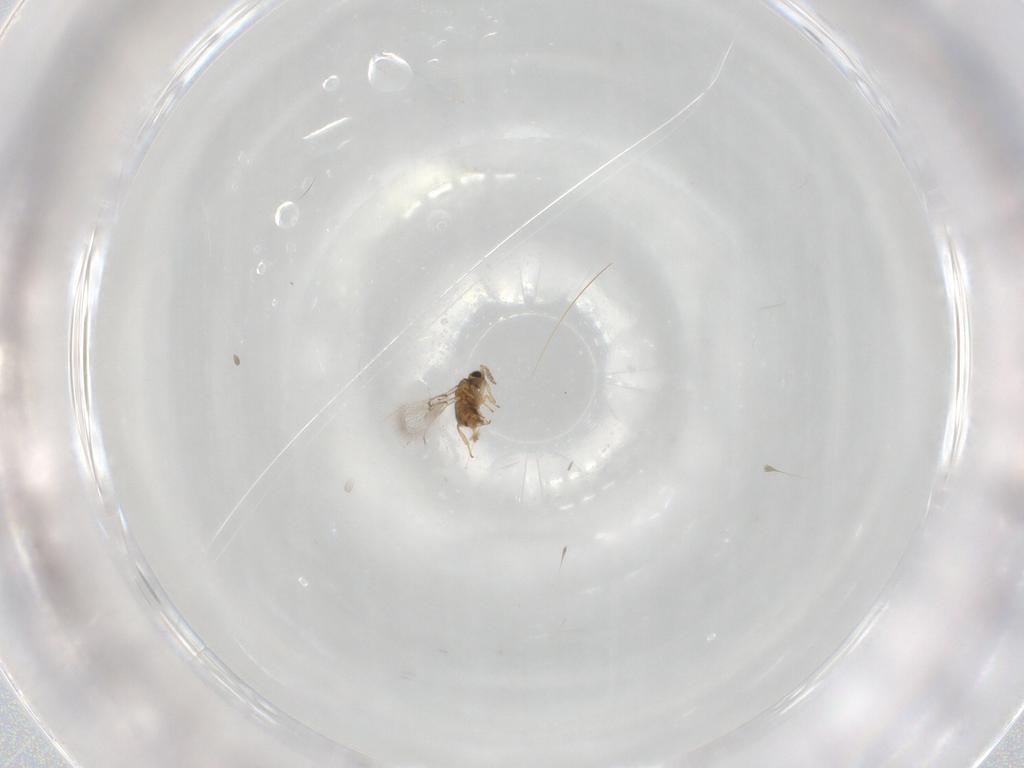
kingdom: Animalia
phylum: Arthropoda
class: Insecta
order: Hymenoptera
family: Trichogrammatidae
